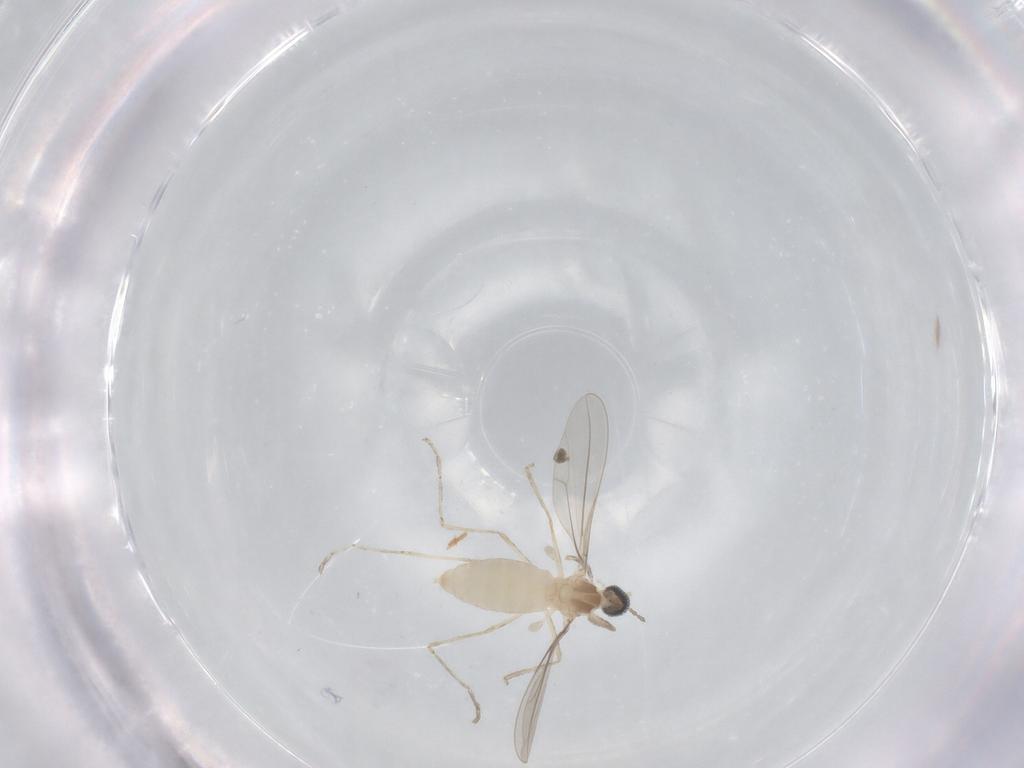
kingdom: Animalia
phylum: Arthropoda
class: Insecta
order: Diptera
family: Cecidomyiidae
